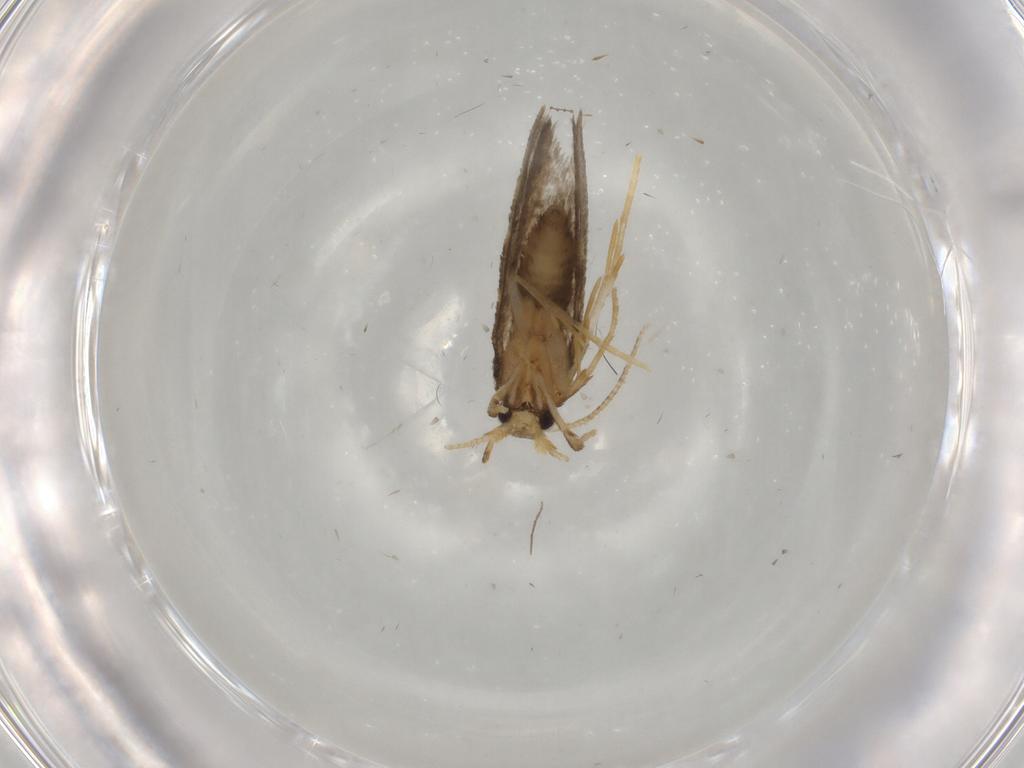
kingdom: Animalia
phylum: Arthropoda
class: Insecta
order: Lepidoptera
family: Psychidae
